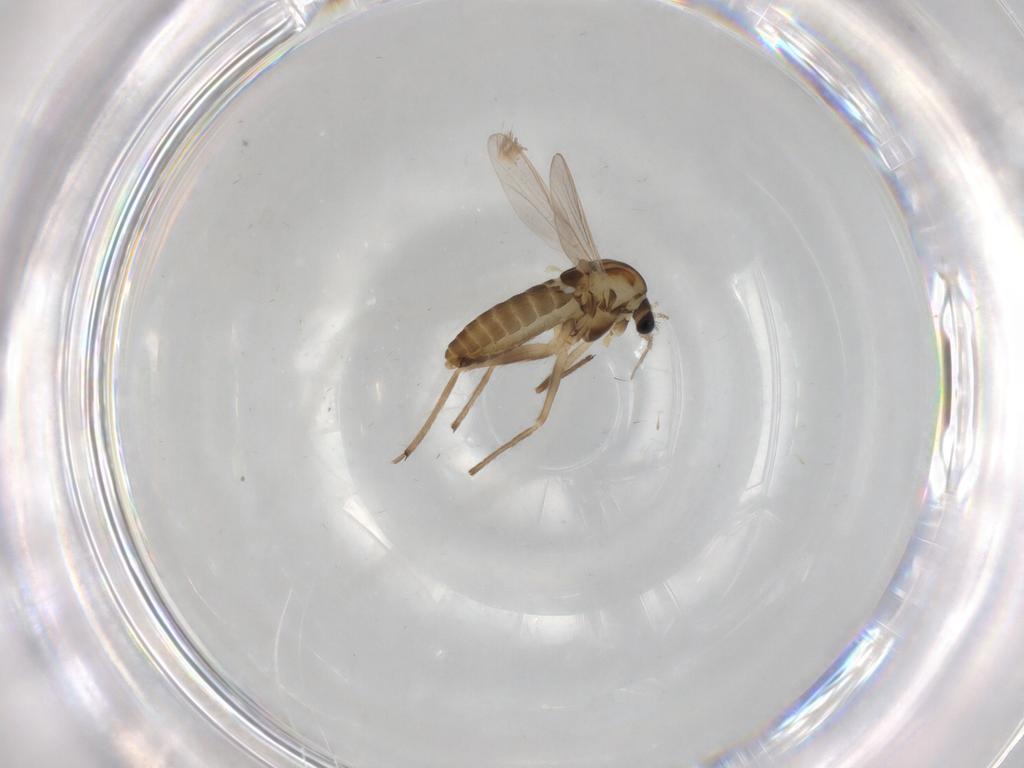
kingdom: Animalia
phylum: Arthropoda
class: Insecta
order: Diptera
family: Chironomidae
